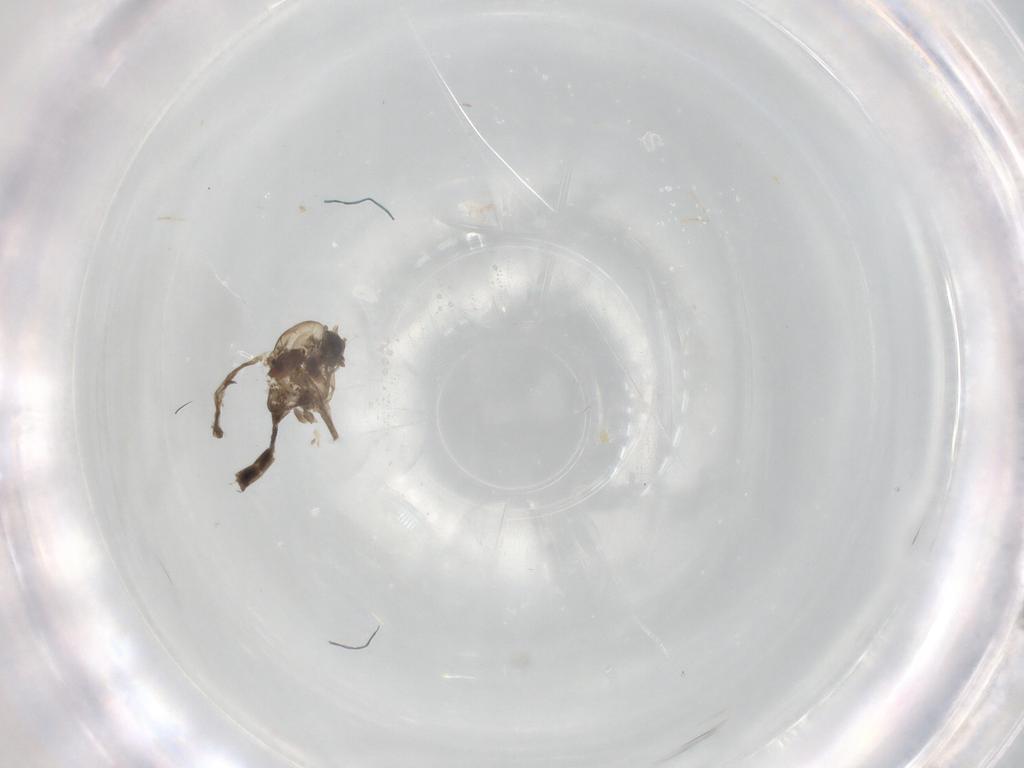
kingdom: Animalia
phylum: Arthropoda
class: Insecta
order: Diptera
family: Chironomidae
